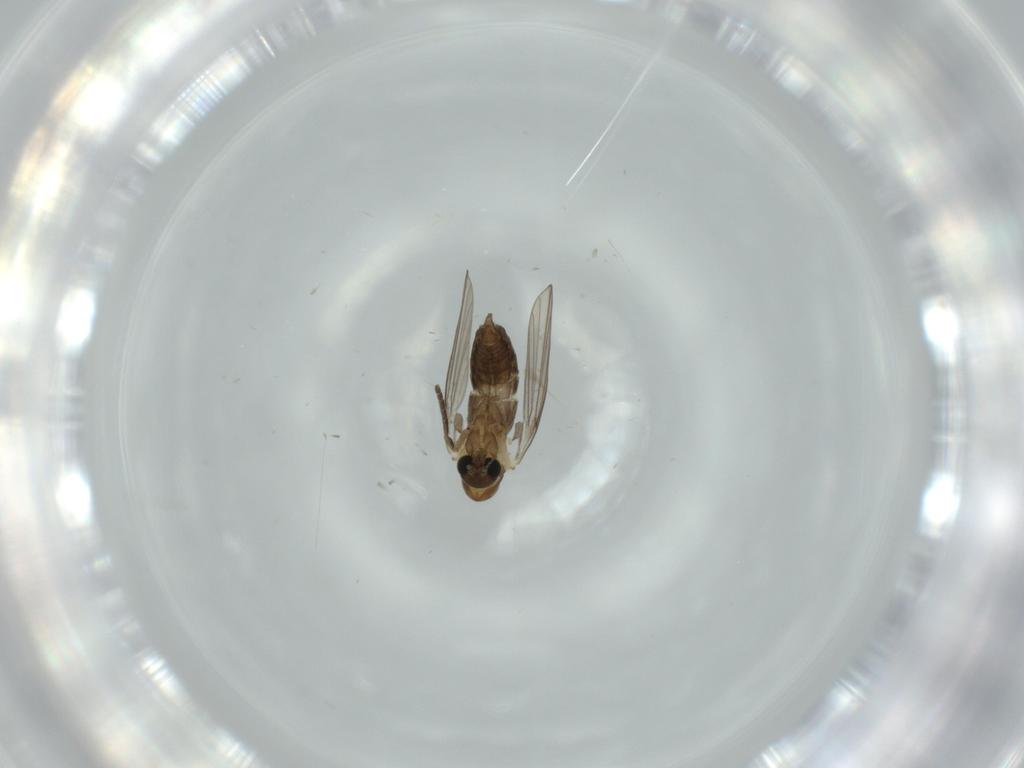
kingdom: Animalia
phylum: Arthropoda
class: Insecta
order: Diptera
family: Psychodidae
